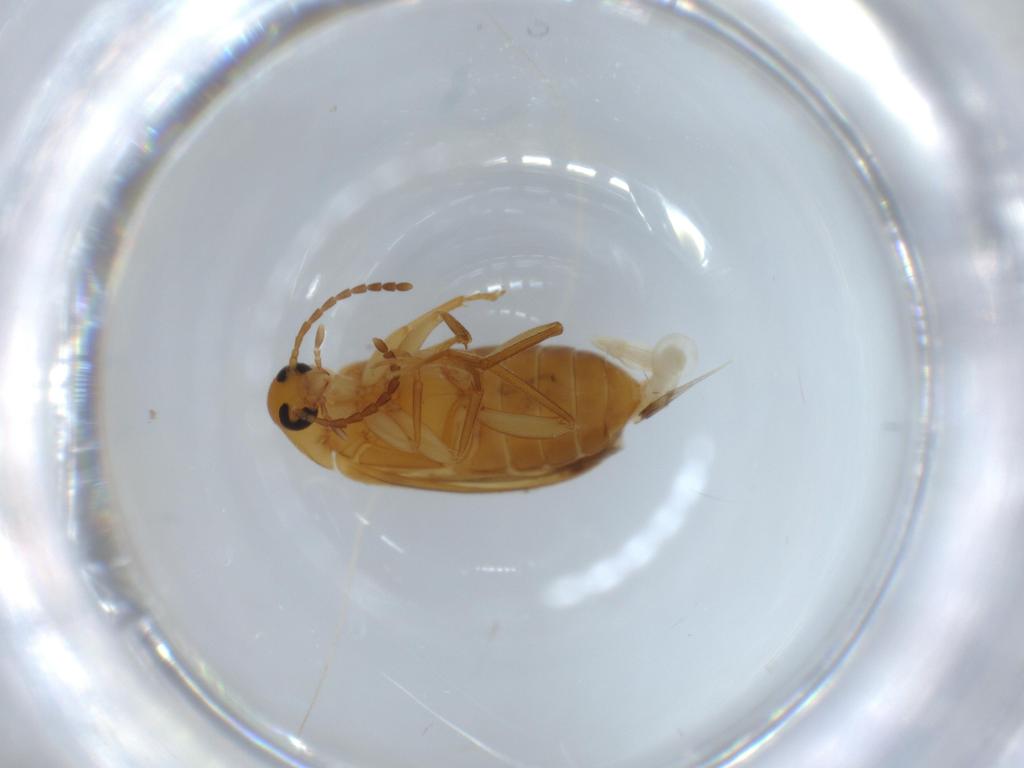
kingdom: Animalia
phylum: Arthropoda
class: Insecta
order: Coleoptera
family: Scraptiidae
